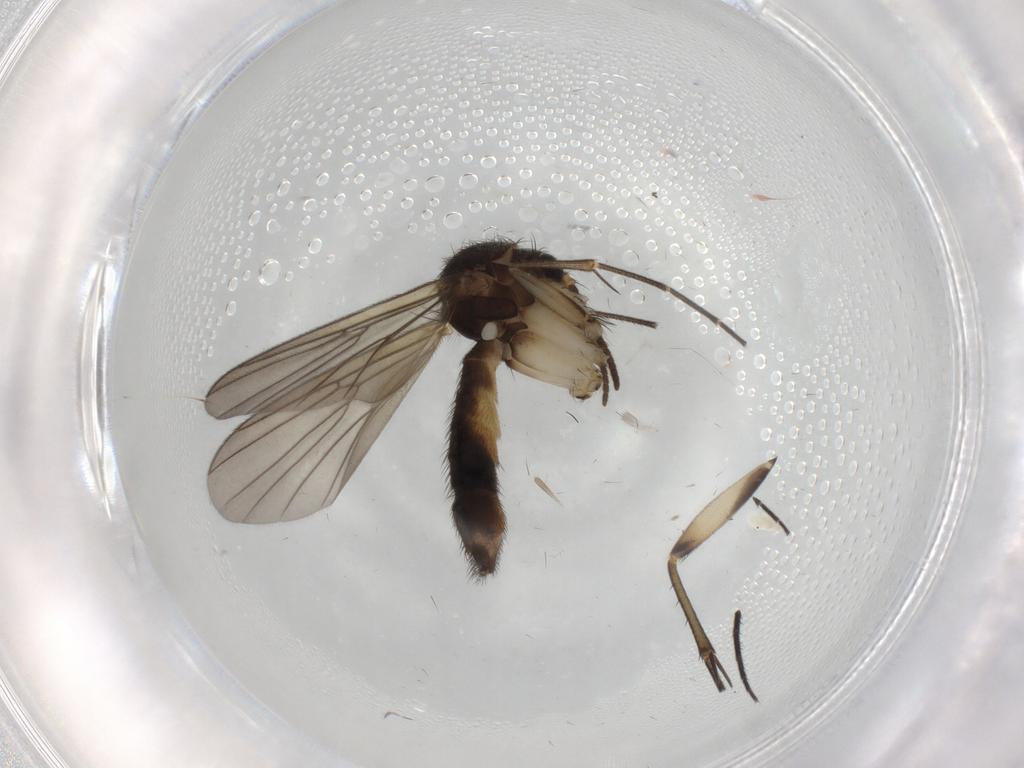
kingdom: Animalia
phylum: Arthropoda
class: Insecta
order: Diptera
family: Cecidomyiidae
